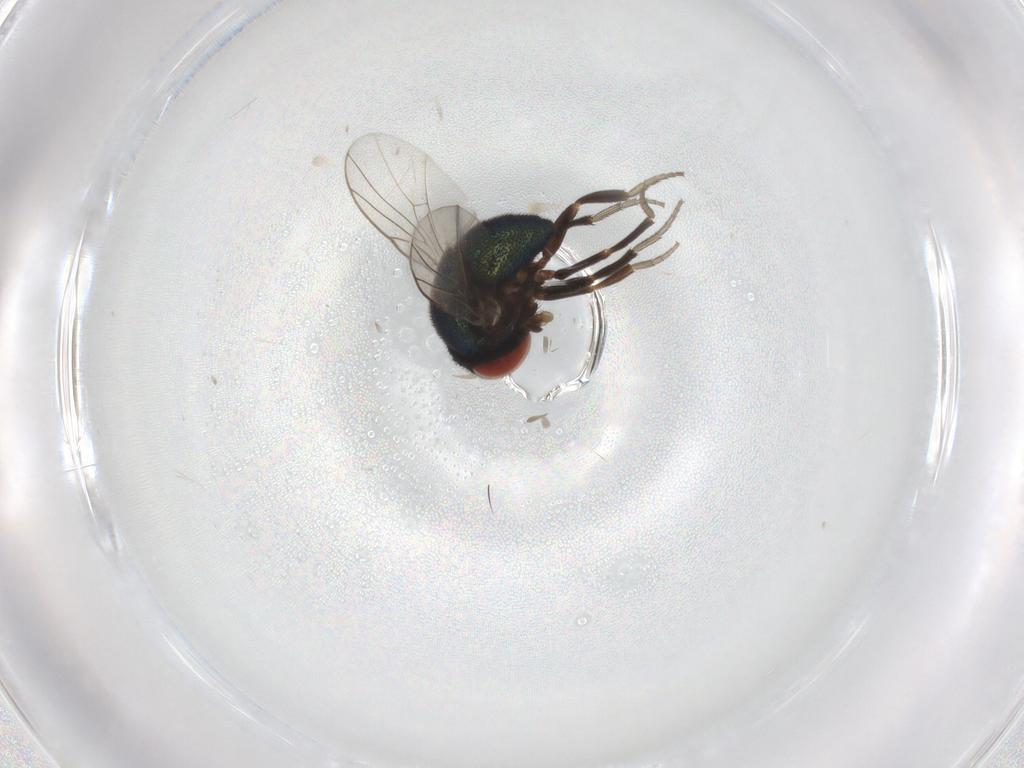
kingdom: Animalia
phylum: Arthropoda
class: Insecta
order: Diptera
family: Cryptochetidae
